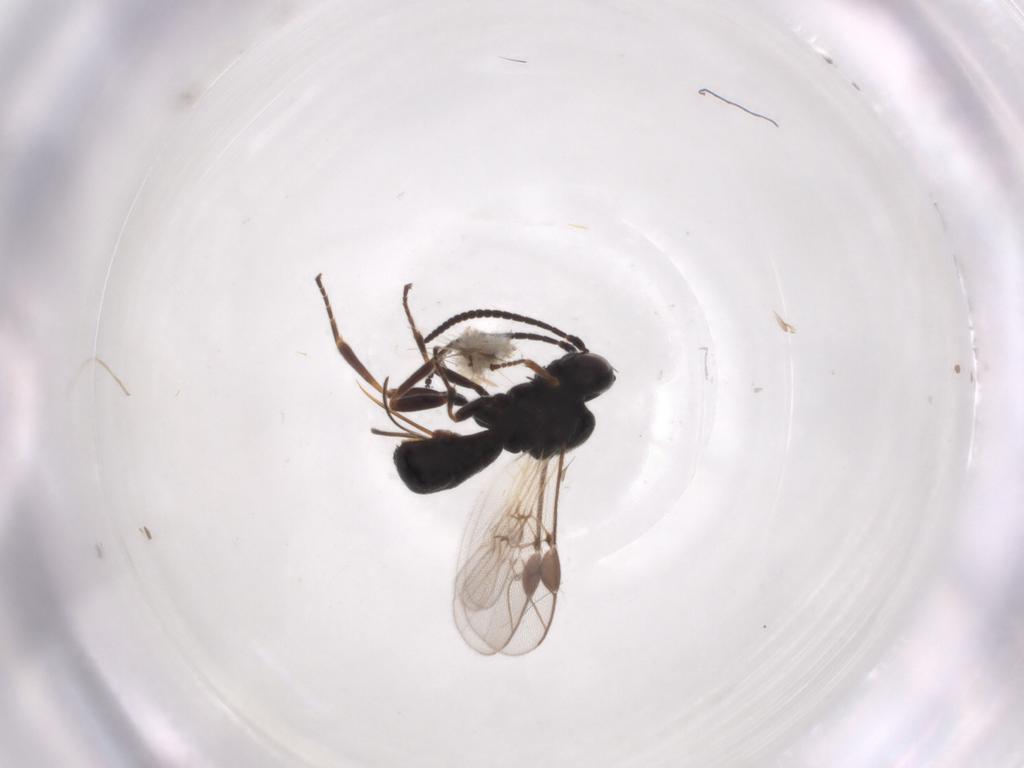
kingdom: Animalia
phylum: Arthropoda
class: Insecta
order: Hymenoptera
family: Braconidae
